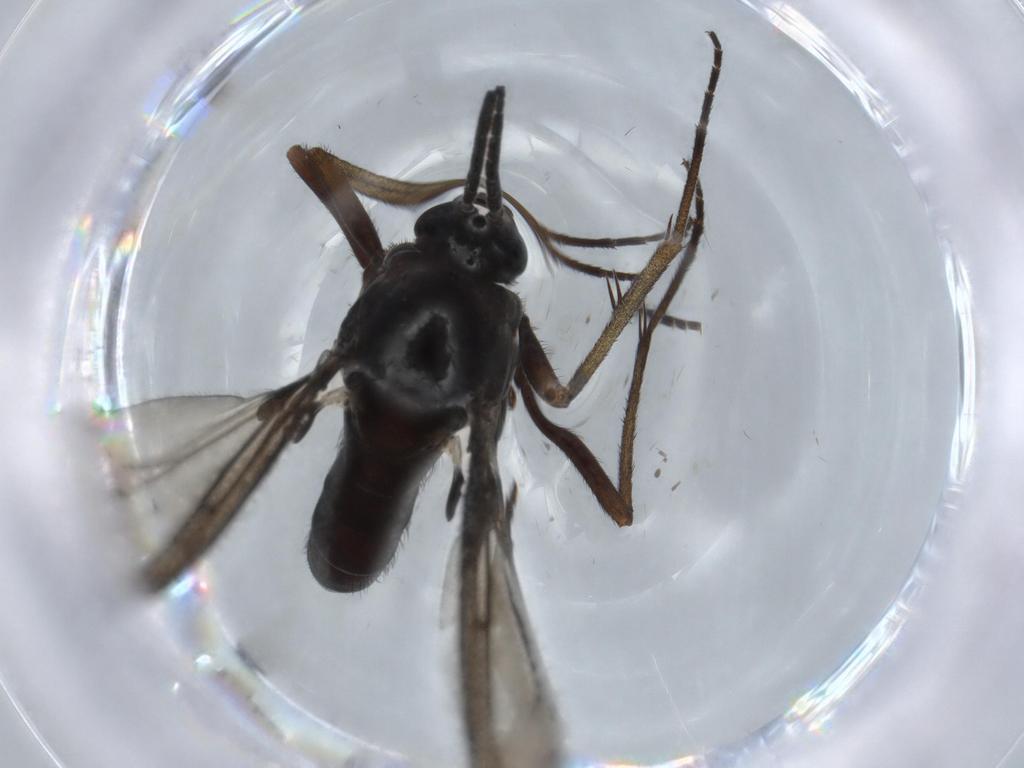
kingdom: Animalia
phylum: Arthropoda
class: Insecta
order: Diptera
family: Sciaridae
